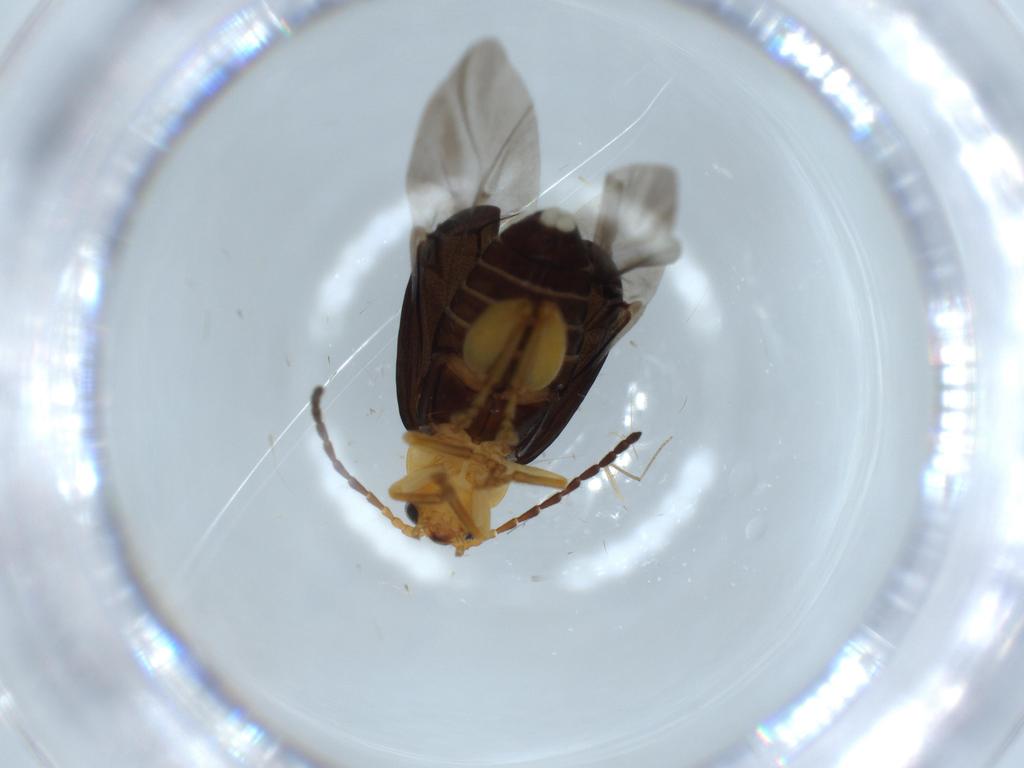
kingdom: Animalia
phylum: Arthropoda
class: Insecta
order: Coleoptera
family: Chrysomelidae
